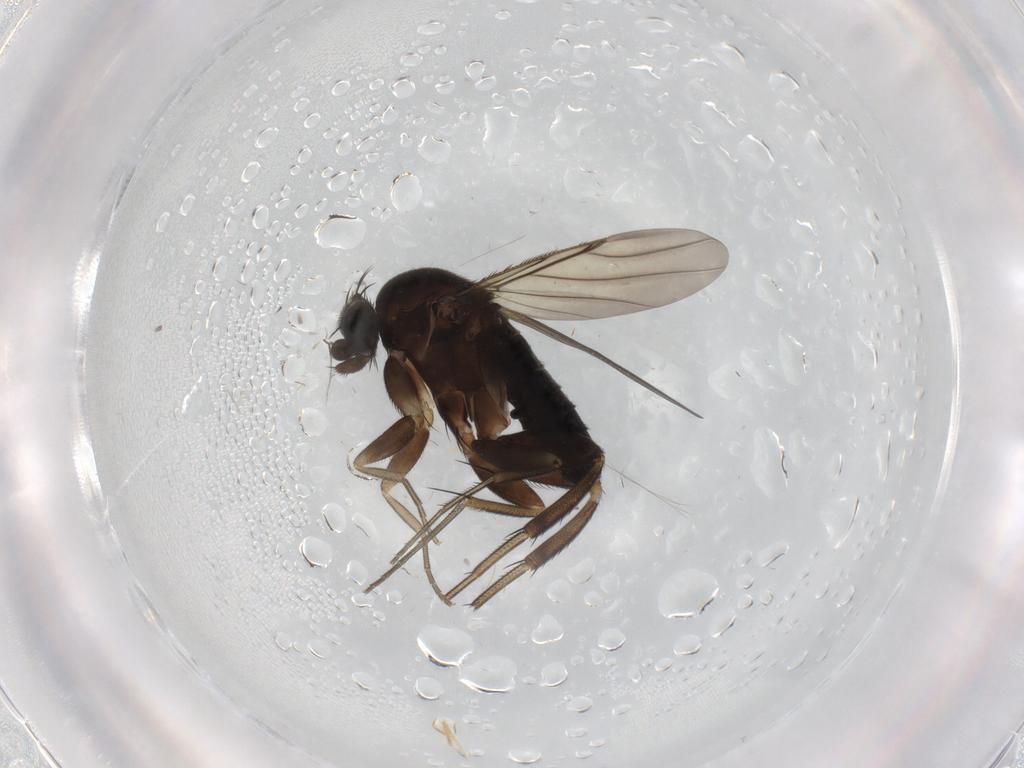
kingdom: Animalia
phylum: Arthropoda
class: Insecta
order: Diptera
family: Phoridae
